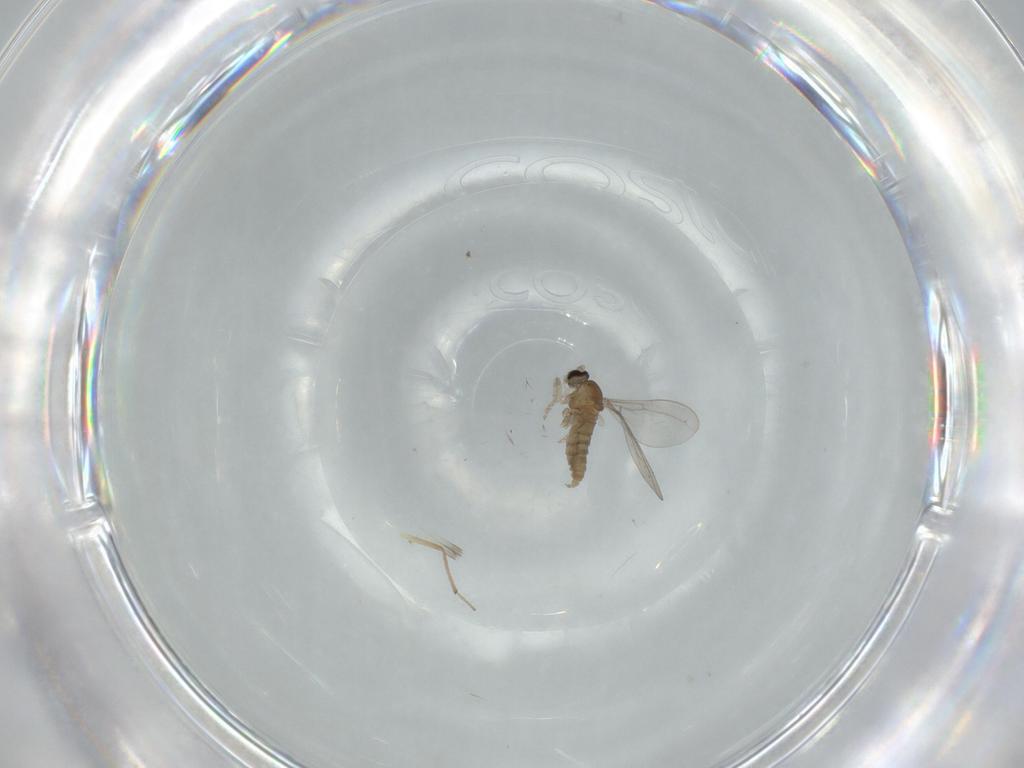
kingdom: Animalia
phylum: Arthropoda
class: Insecta
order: Diptera
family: Cecidomyiidae
